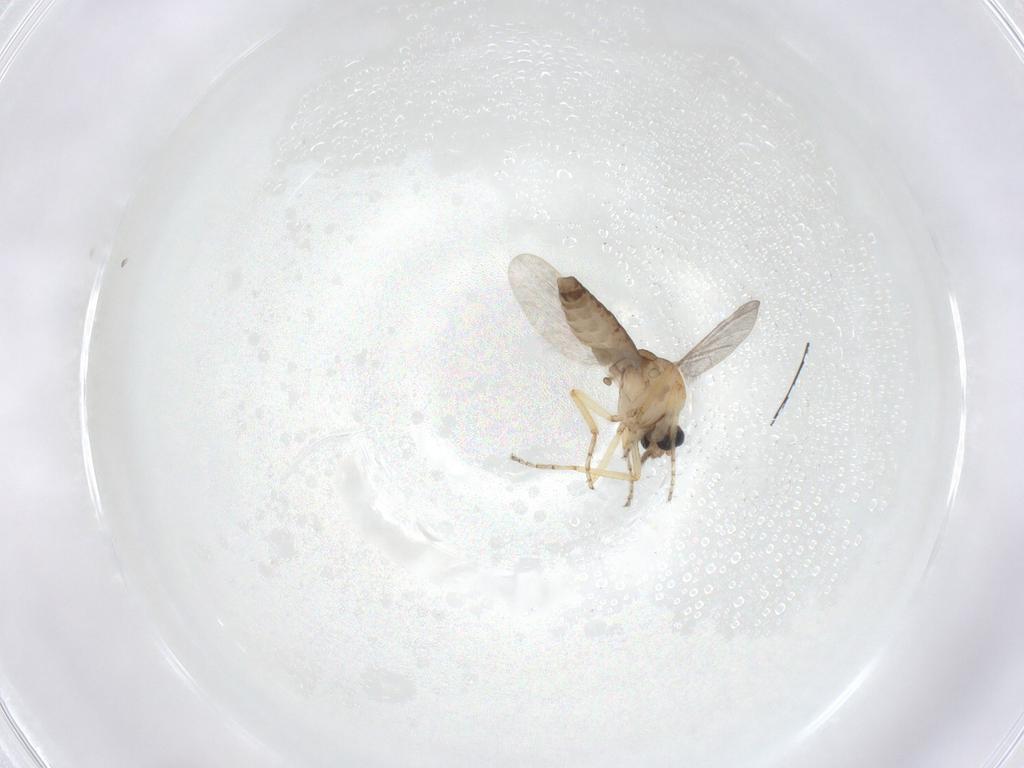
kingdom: Animalia
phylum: Arthropoda
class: Insecta
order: Diptera
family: Ceratopogonidae
